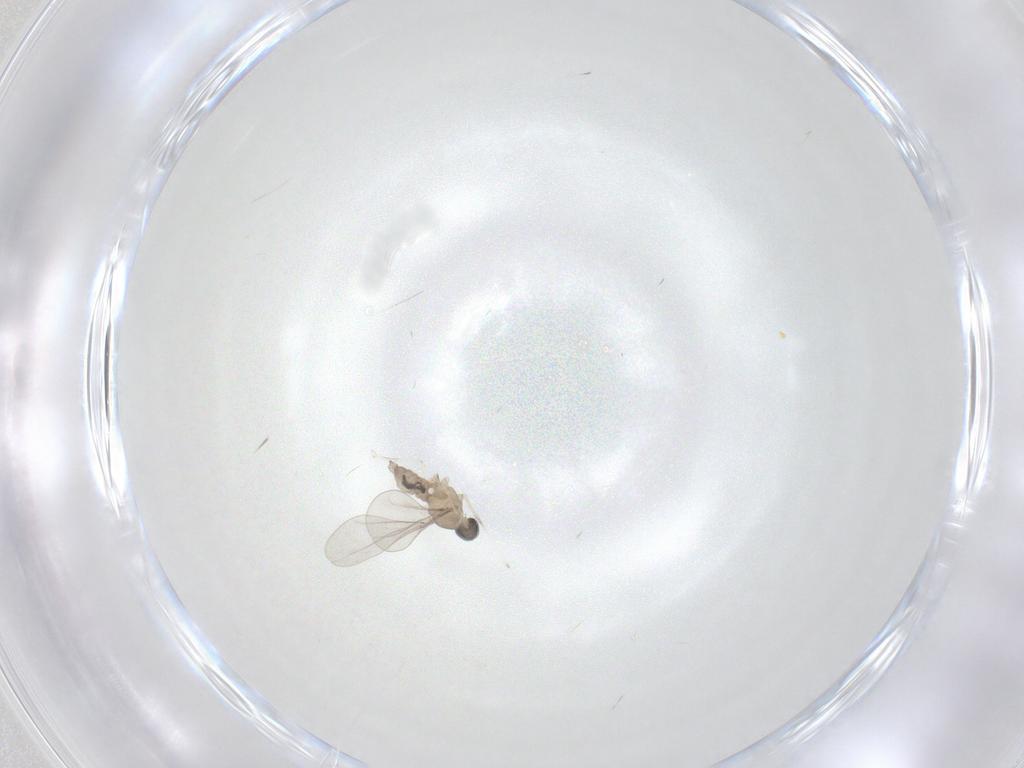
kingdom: Animalia
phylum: Arthropoda
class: Insecta
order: Diptera
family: Cecidomyiidae
